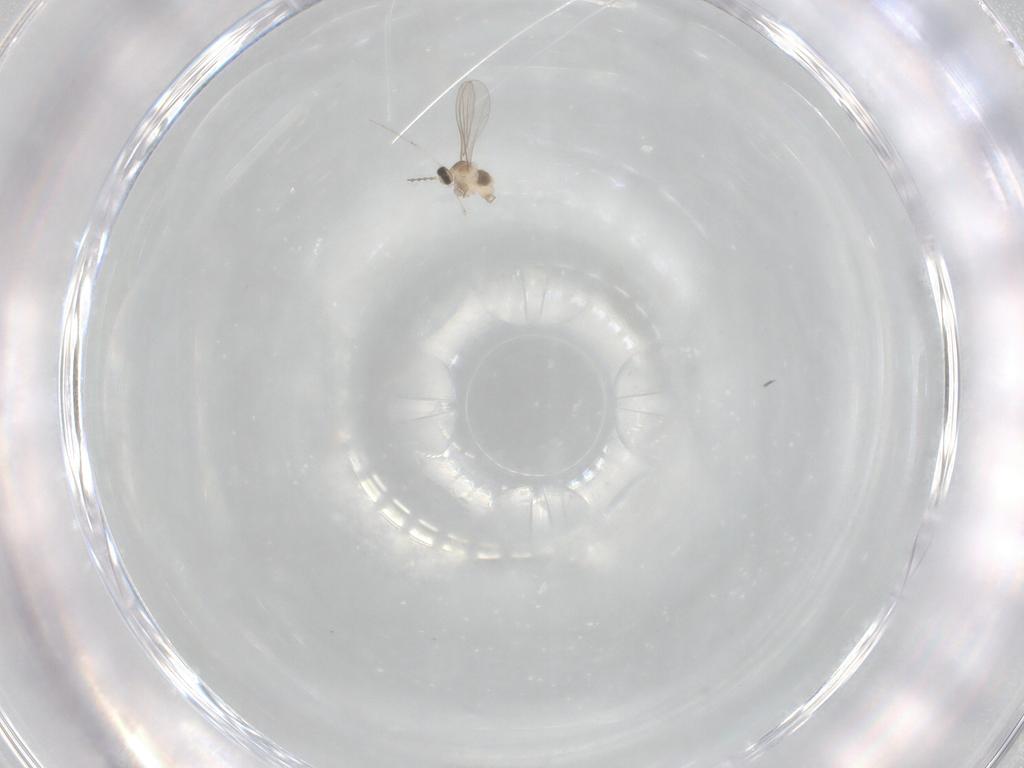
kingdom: Animalia
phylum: Arthropoda
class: Insecta
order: Diptera
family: Cecidomyiidae
